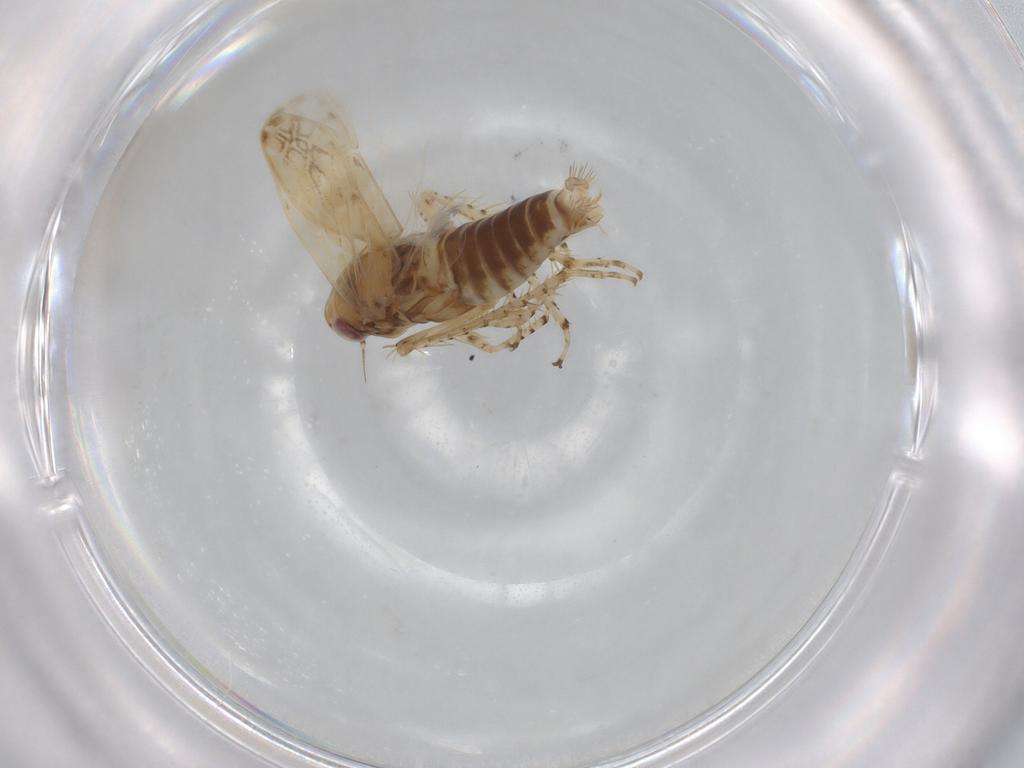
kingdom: Animalia
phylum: Arthropoda
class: Insecta
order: Hemiptera
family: Cicadellidae
